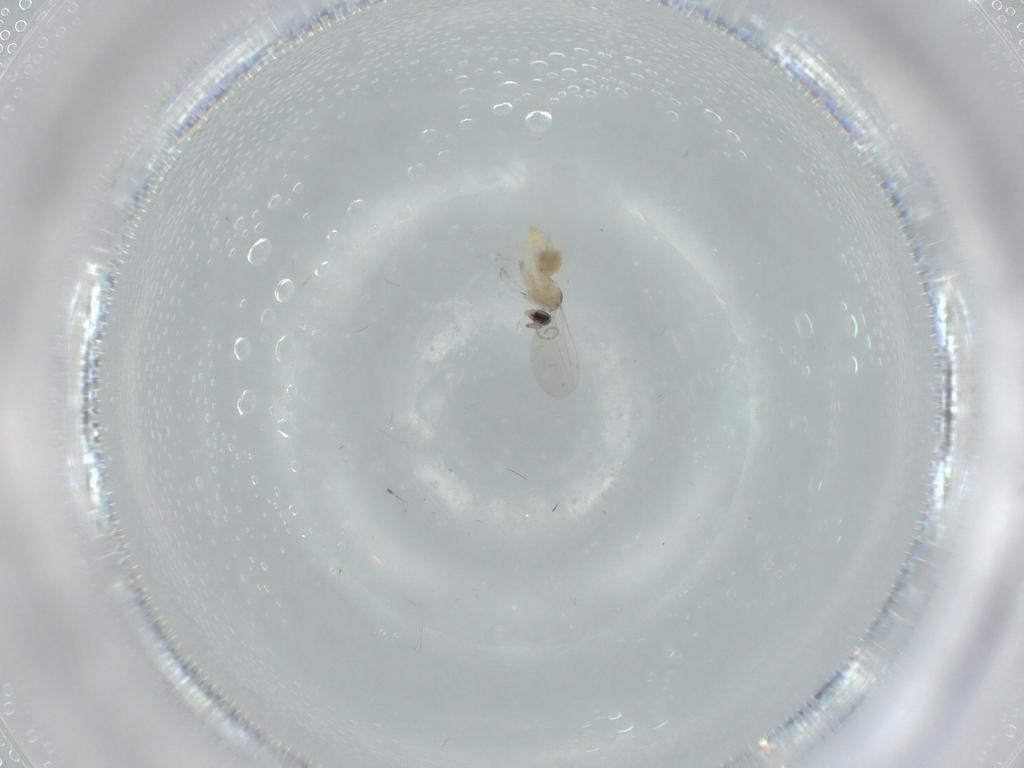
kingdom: Animalia
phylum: Arthropoda
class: Insecta
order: Diptera
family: Cecidomyiidae
